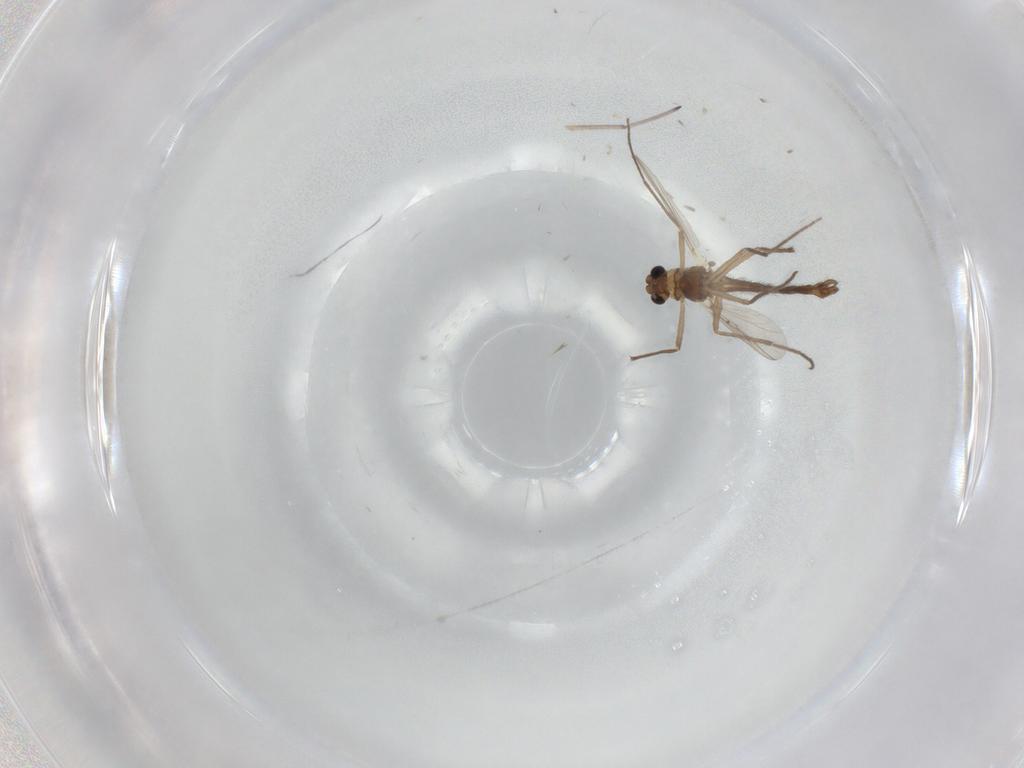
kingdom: Animalia
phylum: Arthropoda
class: Insecta
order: Diptera
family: Chironomidae
